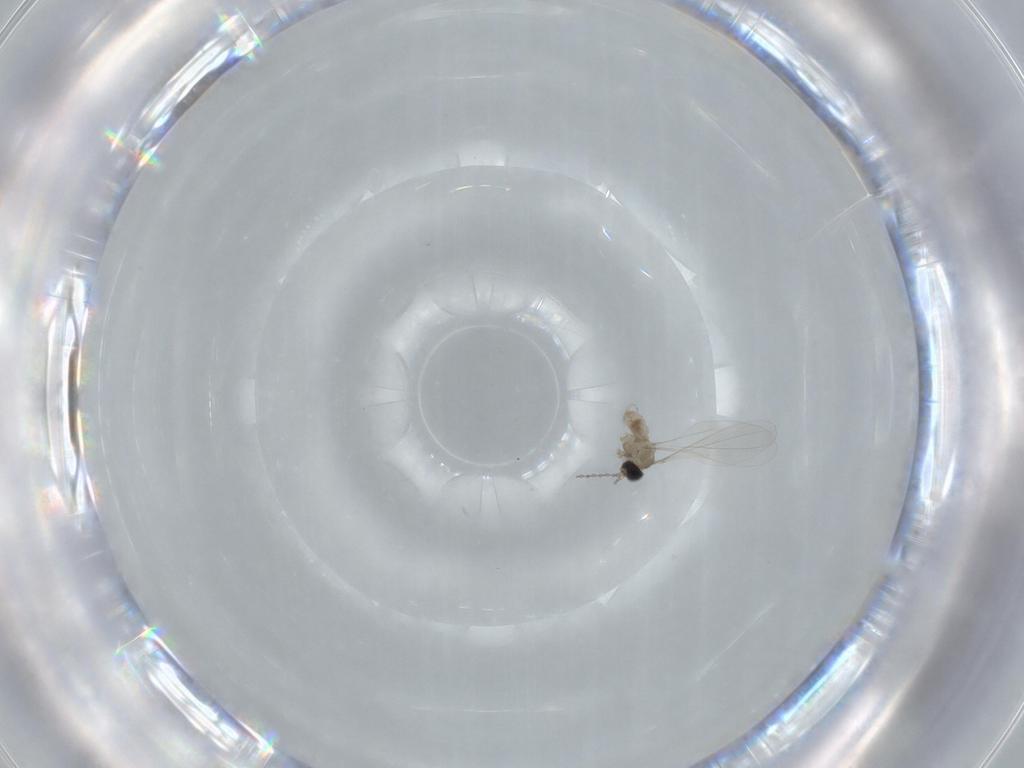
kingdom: Animalia
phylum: Arthropoda
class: Insecta
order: Diptera
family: Cecidomyiidae
